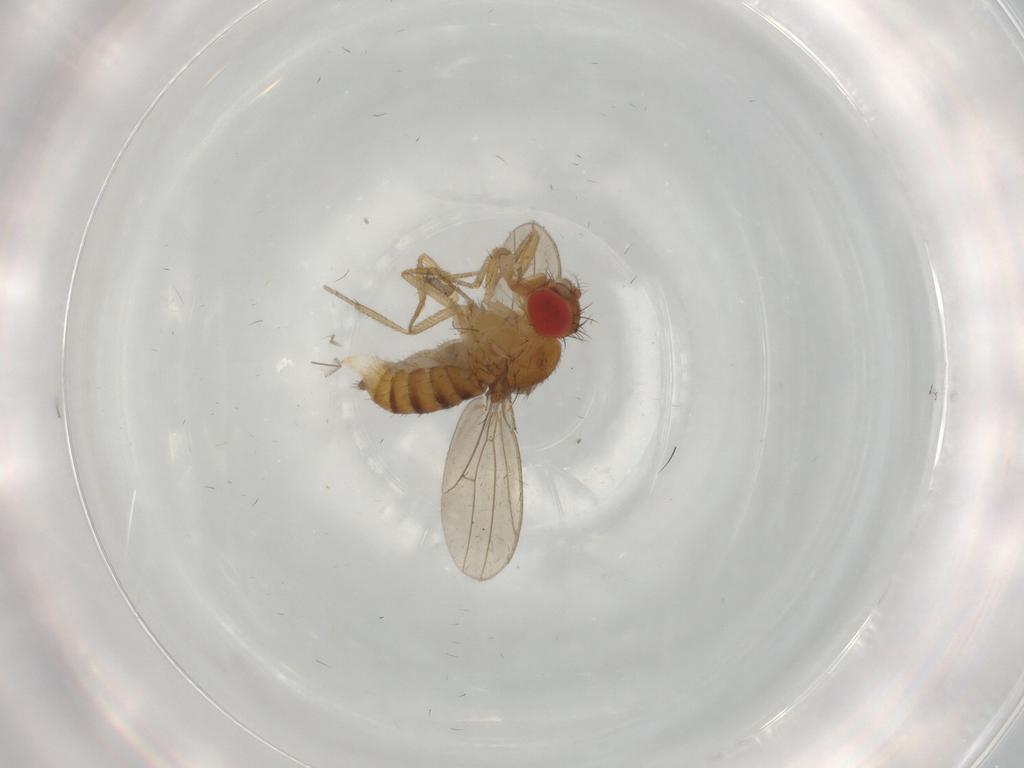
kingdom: Animalia
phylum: Arthropoda
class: Insecta
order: Diptera
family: Drosophilidae
